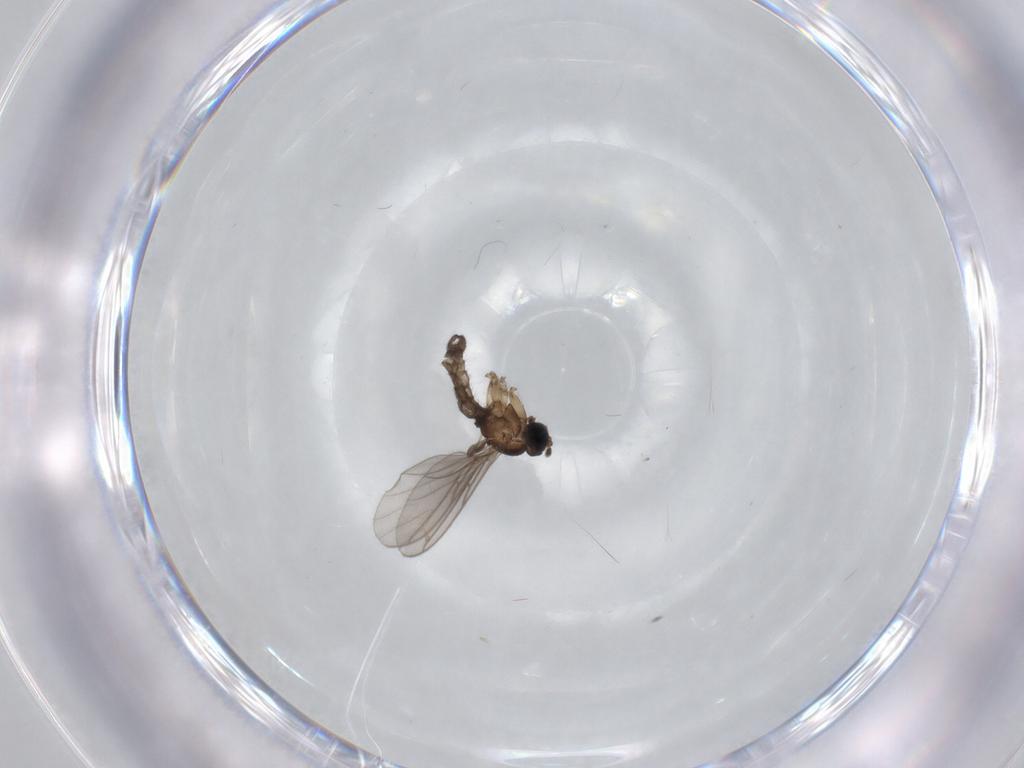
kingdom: Animalia
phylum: Arthropoda
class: Insecta
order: Diptera
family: Sciaridae
